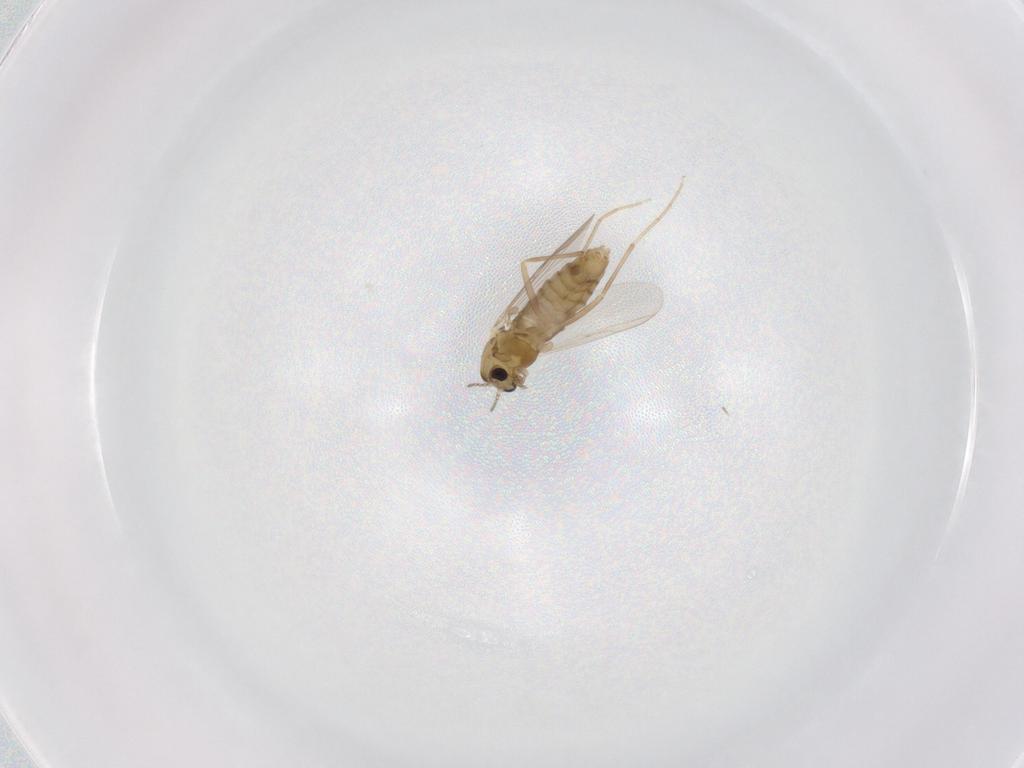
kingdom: Animalia
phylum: Arthropoda
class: Insecta
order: Diptera
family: Chironomidae
